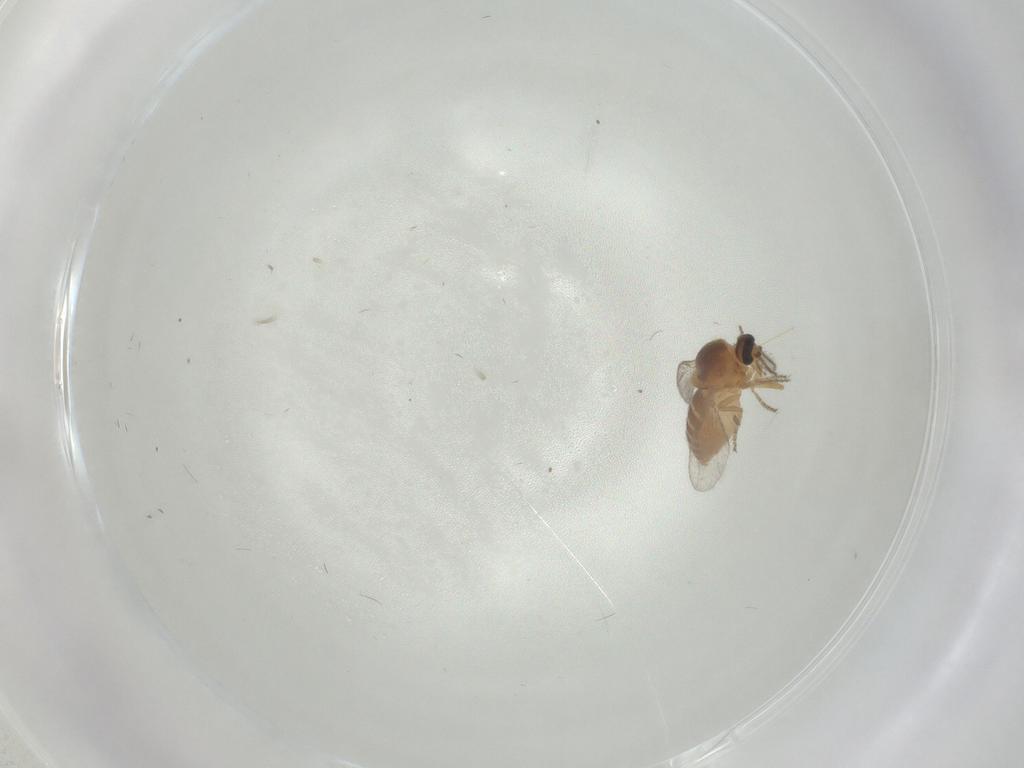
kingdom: Animalia
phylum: Arthropoda
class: Insecta
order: Diptera
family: Ceratopogonidae
